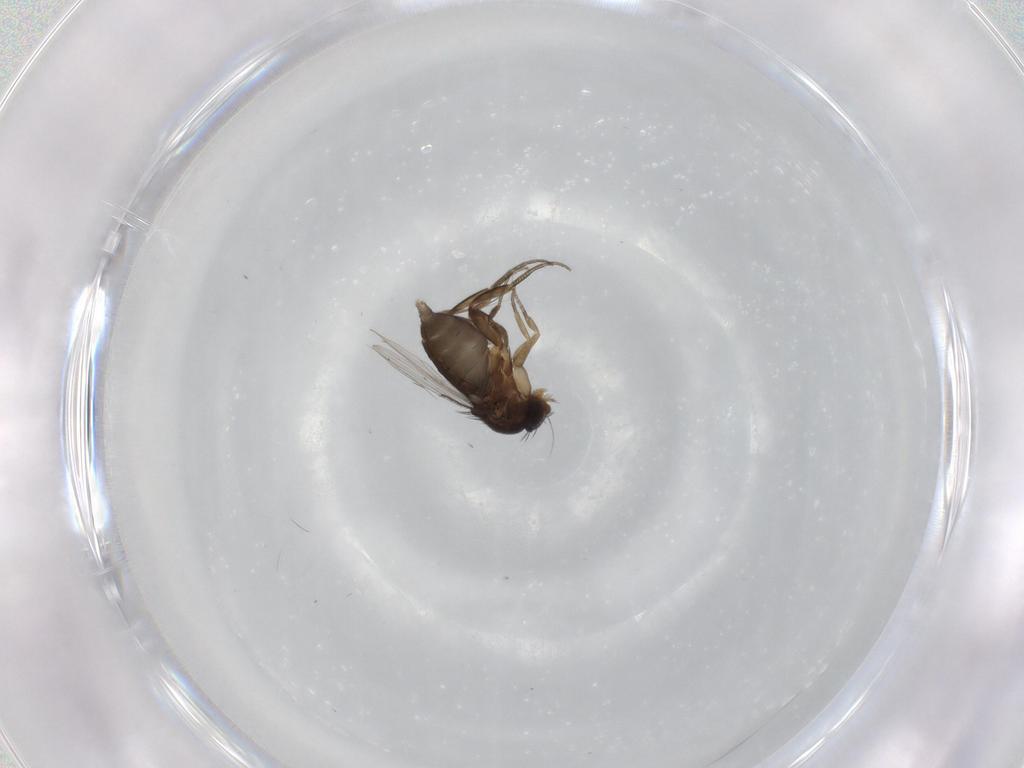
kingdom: Animalia
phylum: Arthropoda
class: Insecta
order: Diptera
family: Phoridae
